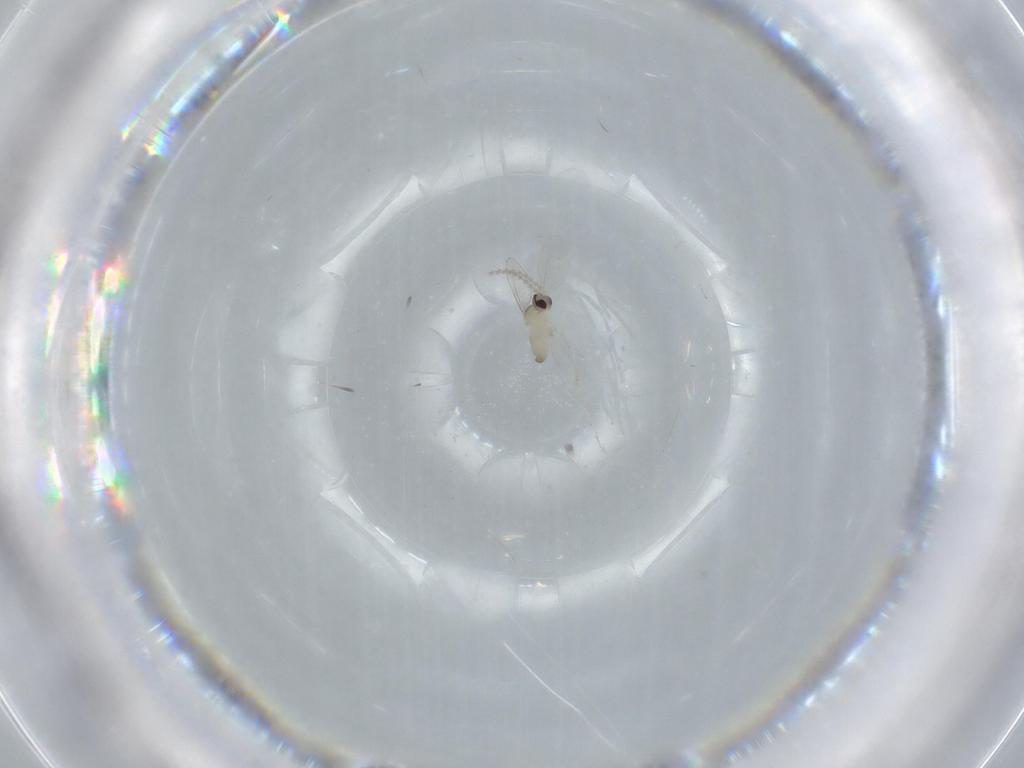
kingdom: Animalia
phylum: Arthropoda
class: Insecta
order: Diptera
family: Cecidomyiidae
